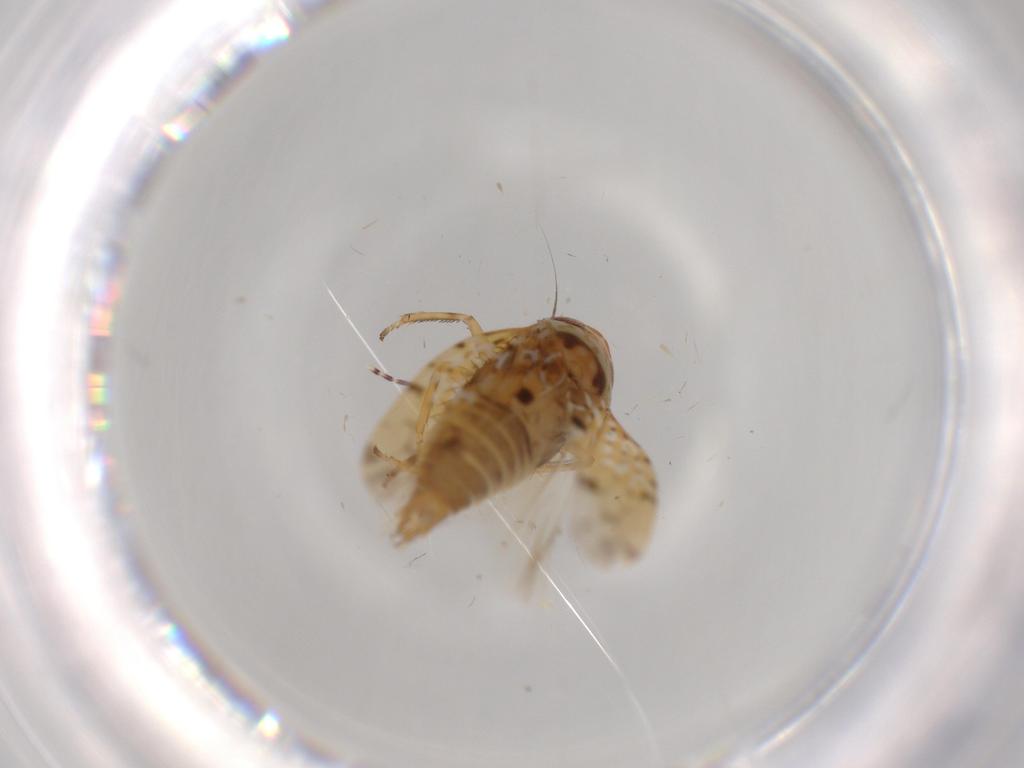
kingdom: Animalia
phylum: Arthropoda
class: Insecta
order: Hemiptera
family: Cicadellidae
